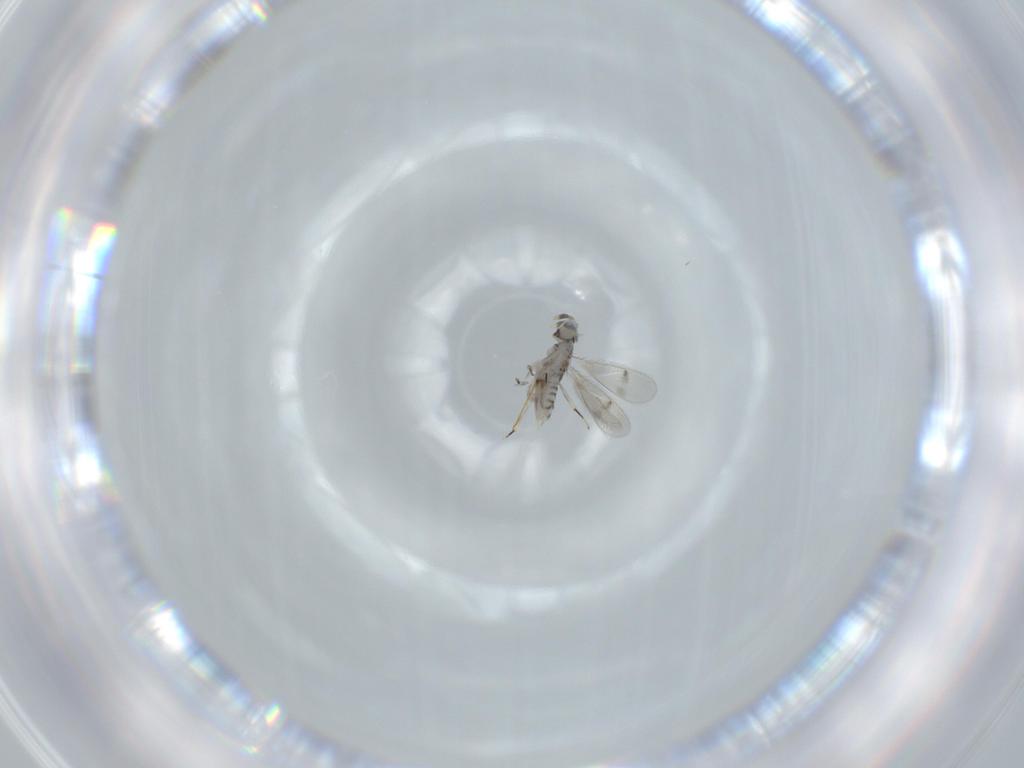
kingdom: Animalia
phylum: Arthropoda
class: Insecta
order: Hymenoptera
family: Aphelinidae
